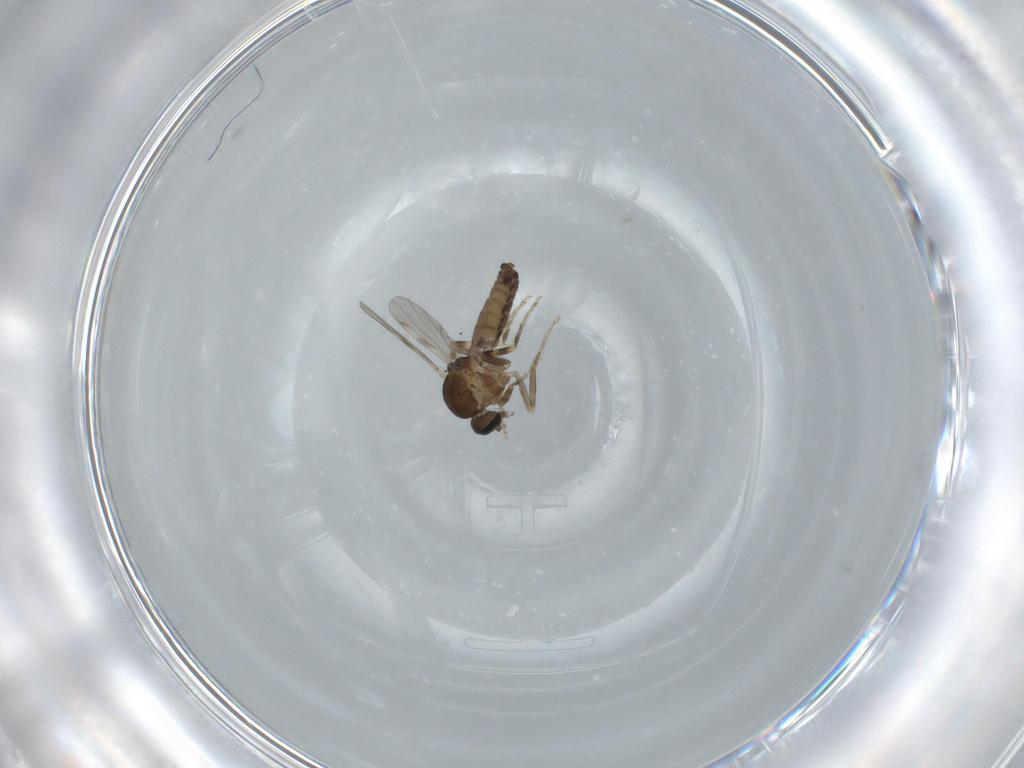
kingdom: Animalia
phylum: Arthropoda
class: Insecta
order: Diptera
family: Ceratopogonidae
